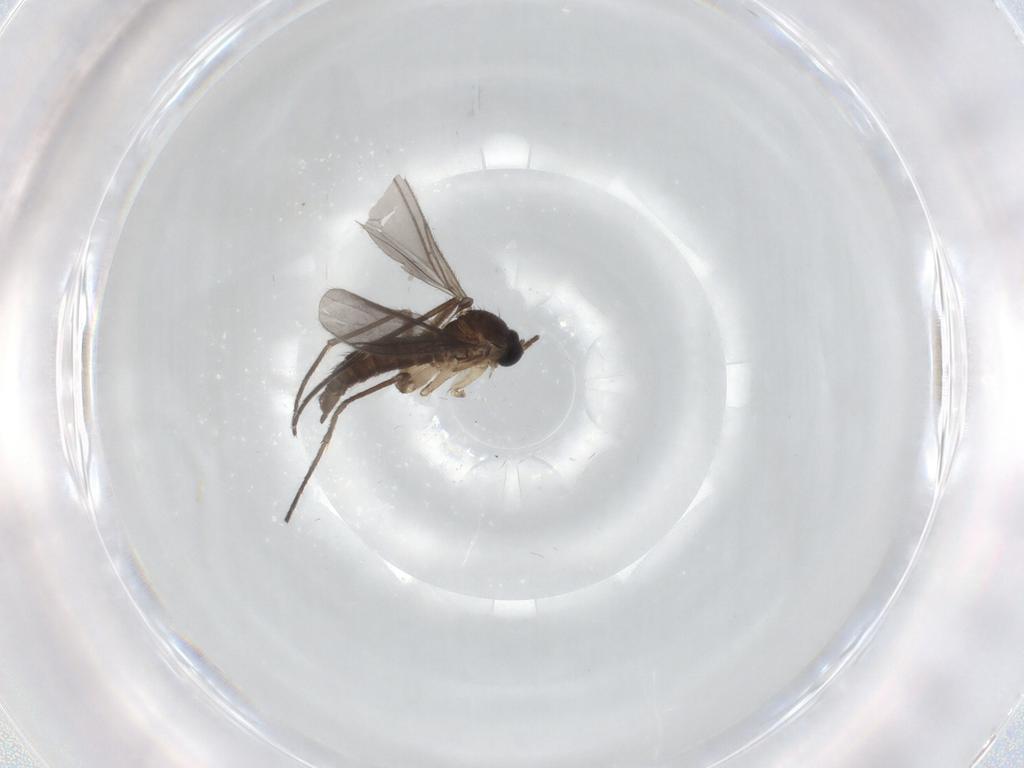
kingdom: Animalia
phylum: Arthropoda
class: Insecta
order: Diptera
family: Sciaridae
